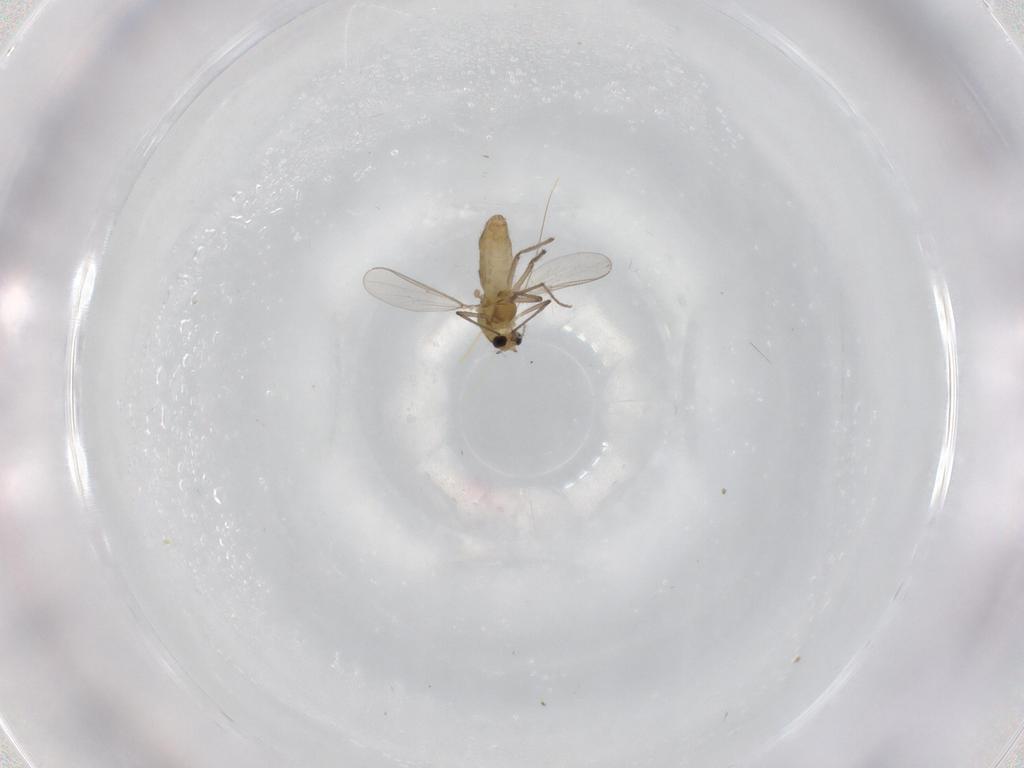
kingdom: Animalia
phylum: Arthropoda
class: Insecta
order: Diptera
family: Chironomidae
